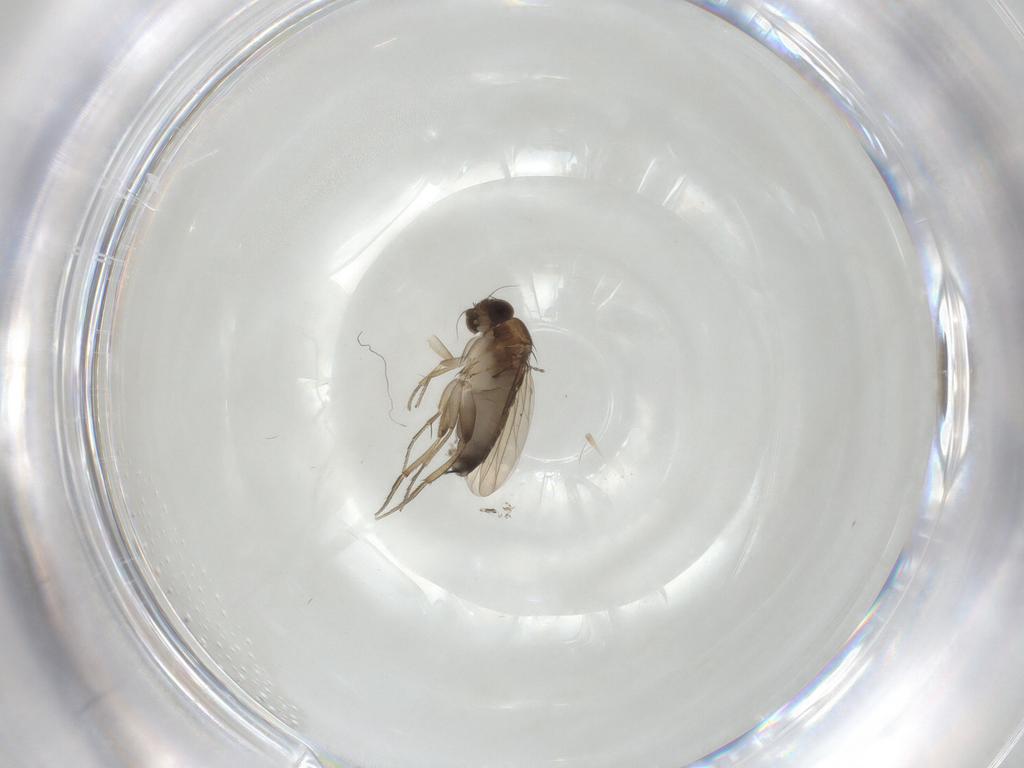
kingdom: Animalia
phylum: Arthropoda
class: Insecta
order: Diptera
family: Phoridae
